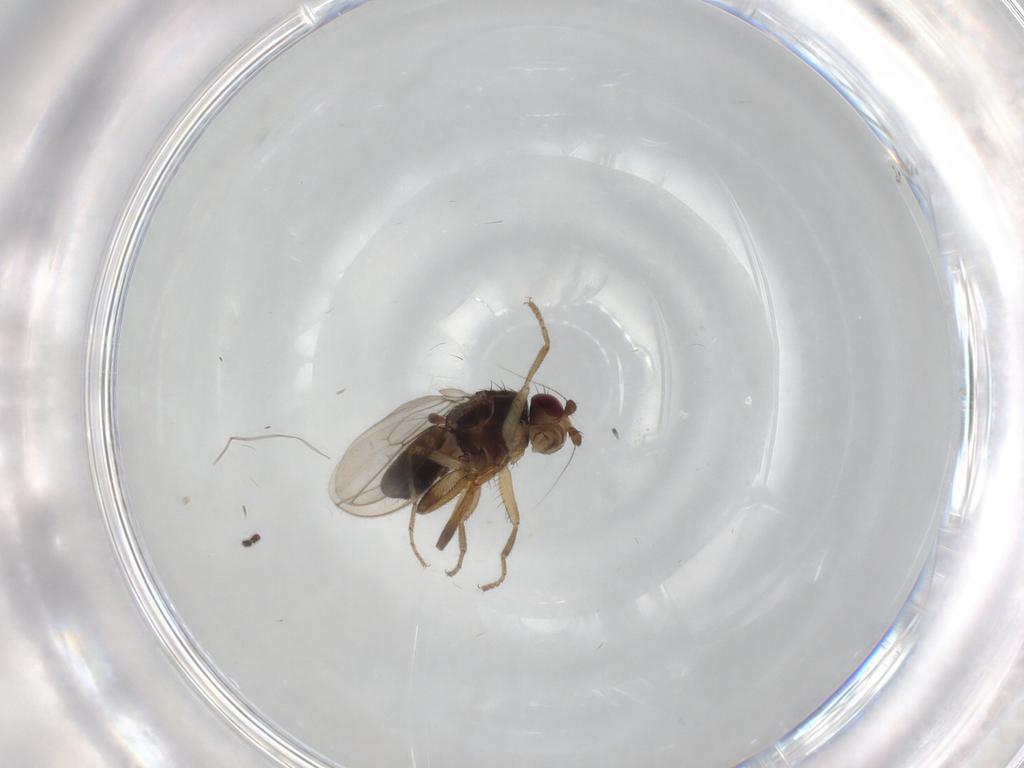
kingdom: Animalia
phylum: Arthropoda
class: Insecta
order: Diptera
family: Sphaeroceridae
